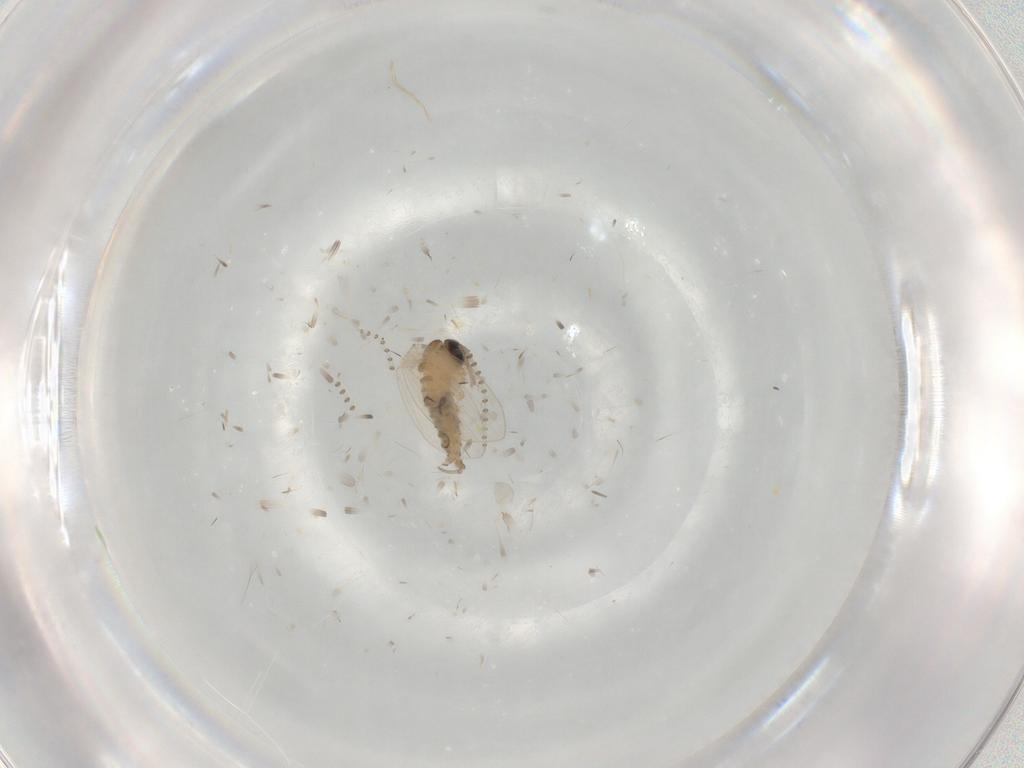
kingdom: Animalia
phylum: Arthropoda
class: Insecta
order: Diptera
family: Psychodidae
